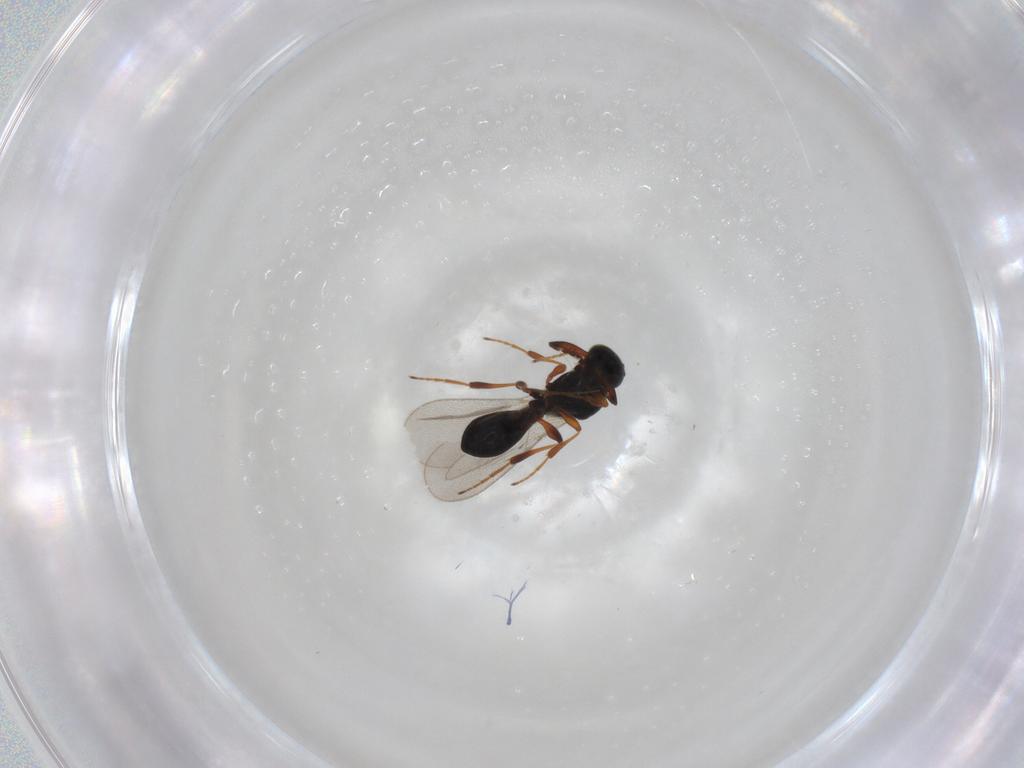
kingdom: Animalia
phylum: Arthropoda
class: Insecta
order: Hymenoptera
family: Platygastridae
